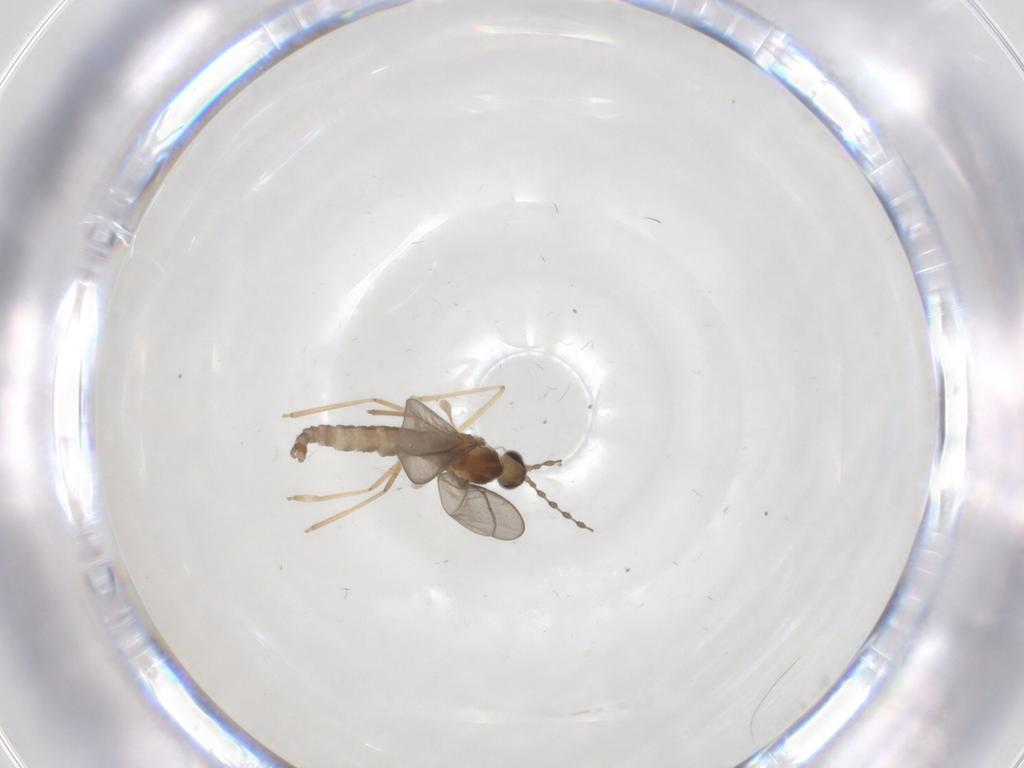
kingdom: Animalia
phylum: Arthropoda
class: Insecta
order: Diptera
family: Cecidomyiidae
